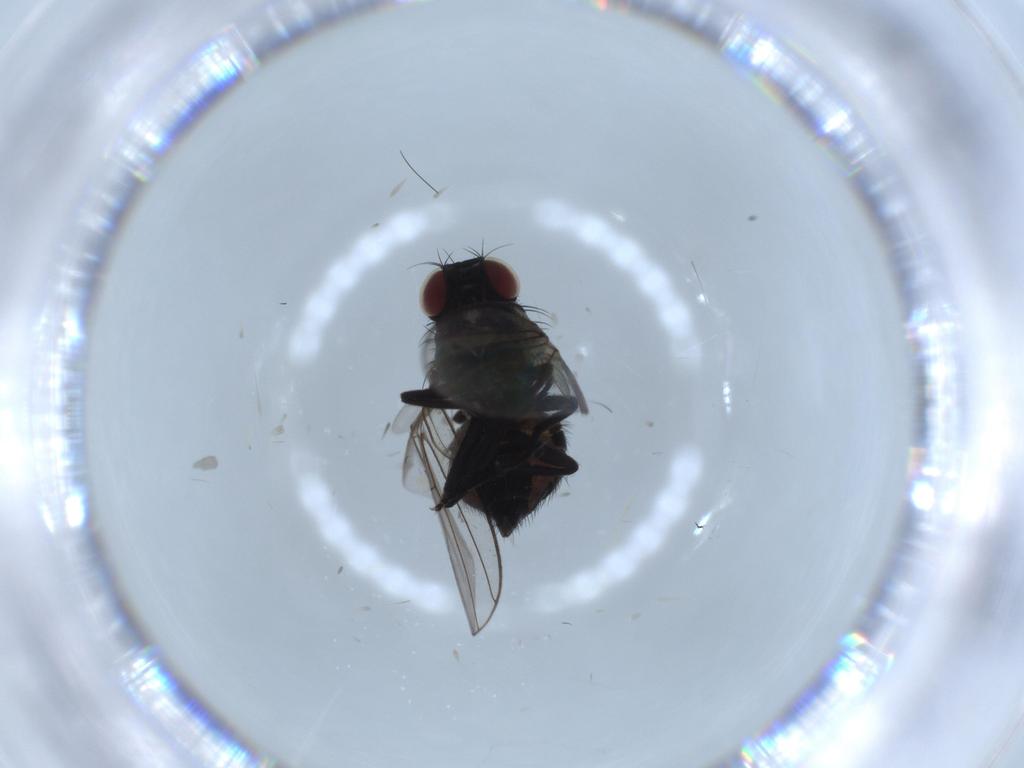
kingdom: Animalia
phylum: Arthropoda
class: Insecta
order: Diptera
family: Agromyzidae
